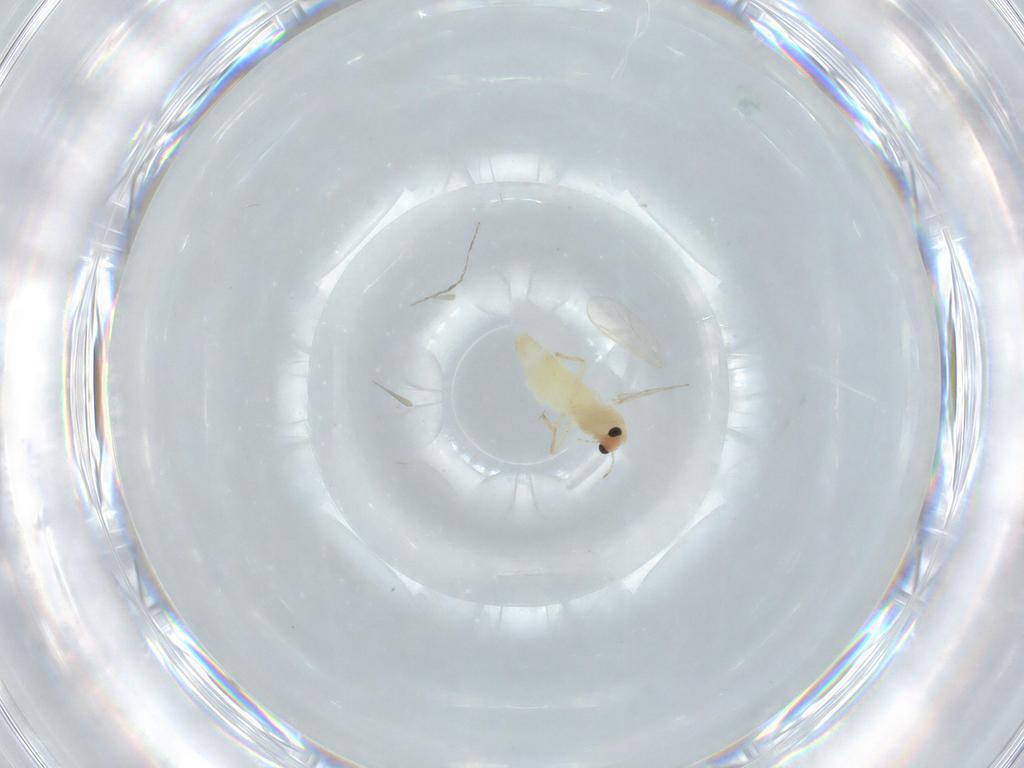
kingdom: Animalia
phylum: Arthropoda
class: Insecta
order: Diptera
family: Chironomidae
